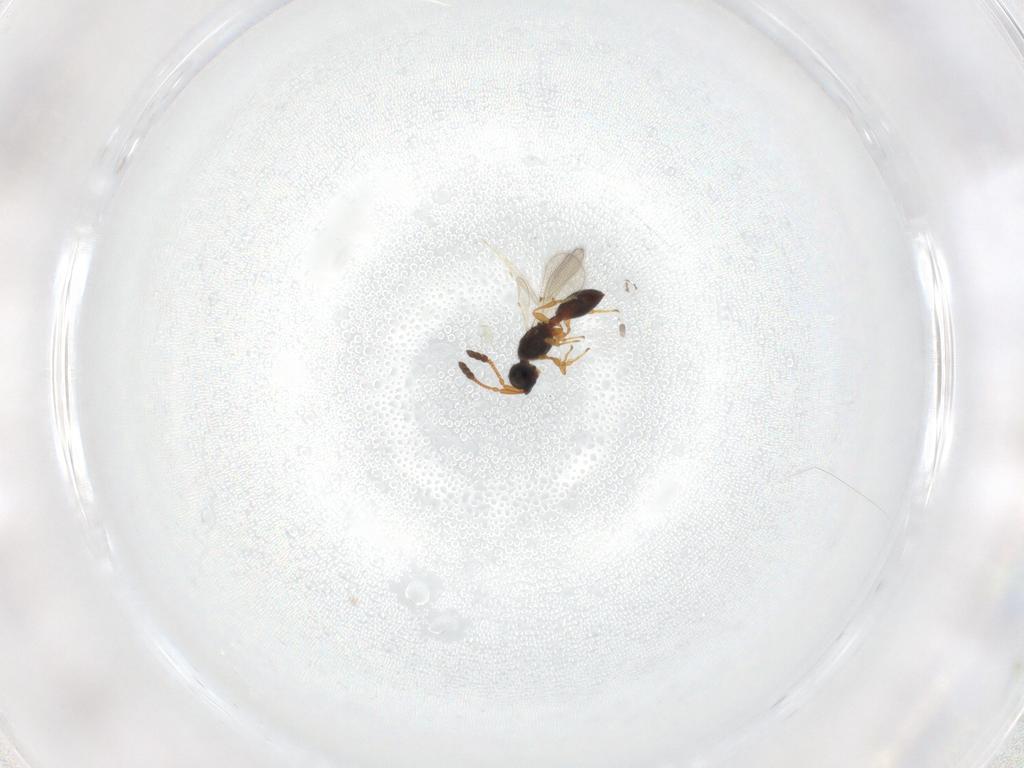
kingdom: Animalia
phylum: Arthropoda
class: Insecta
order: Hymenoptera
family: Diapriidae
